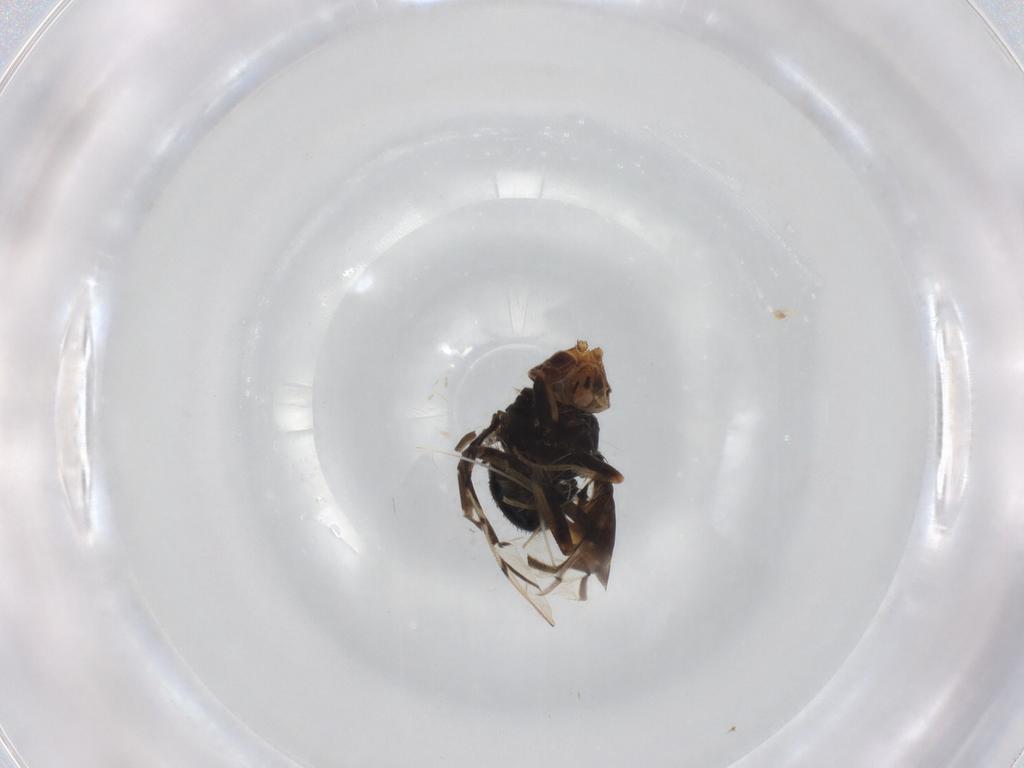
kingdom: Animalia
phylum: Arthropoda
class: Insecta
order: Diptera
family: Tephritidae
